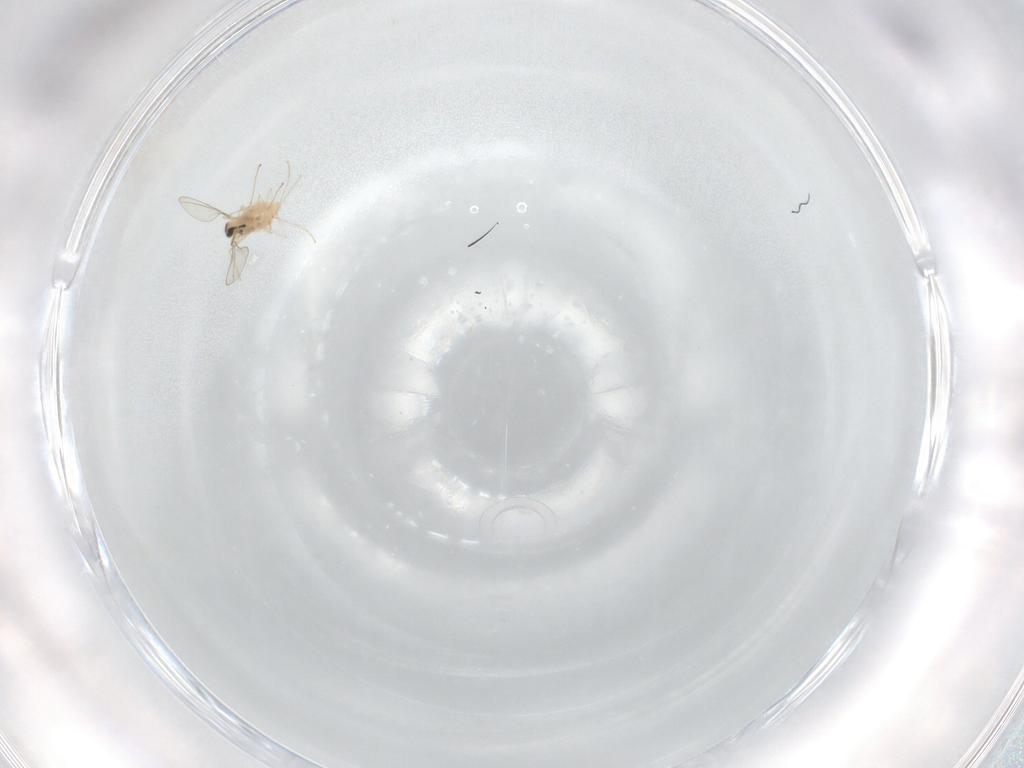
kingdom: Animalia
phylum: Arthropoda
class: Insecta
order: Diptera
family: Cecidomyiidae
